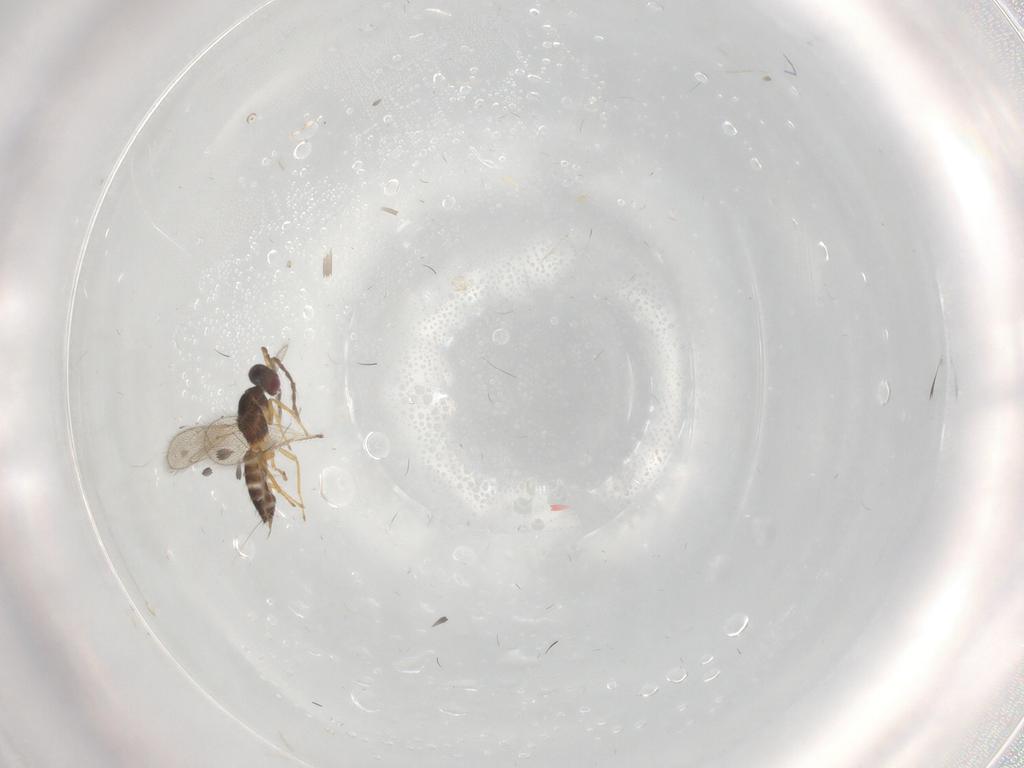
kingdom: Animalia
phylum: Arthropoda
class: Insecta
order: Hymenoptera
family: Eulophidae
